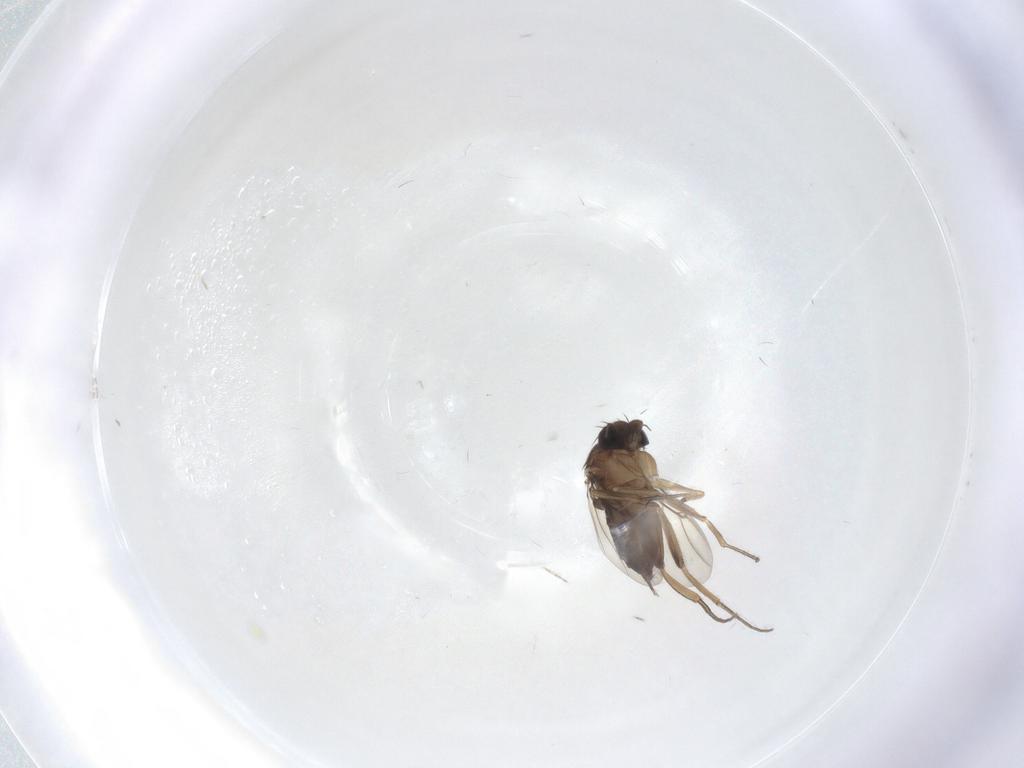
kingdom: Animalia
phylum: Arthropoda
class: Insecta
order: Diptera
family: Phoridae
